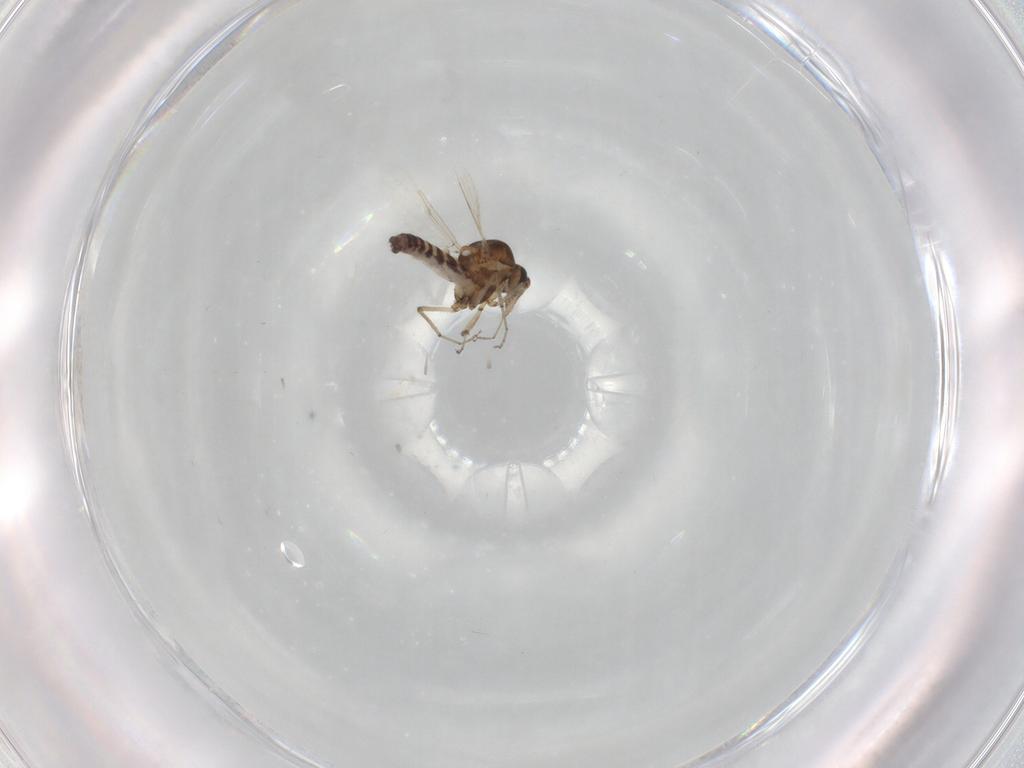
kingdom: Animalia
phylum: Arthropoda
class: Insecta
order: Diptera
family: Ceratopogonidae
